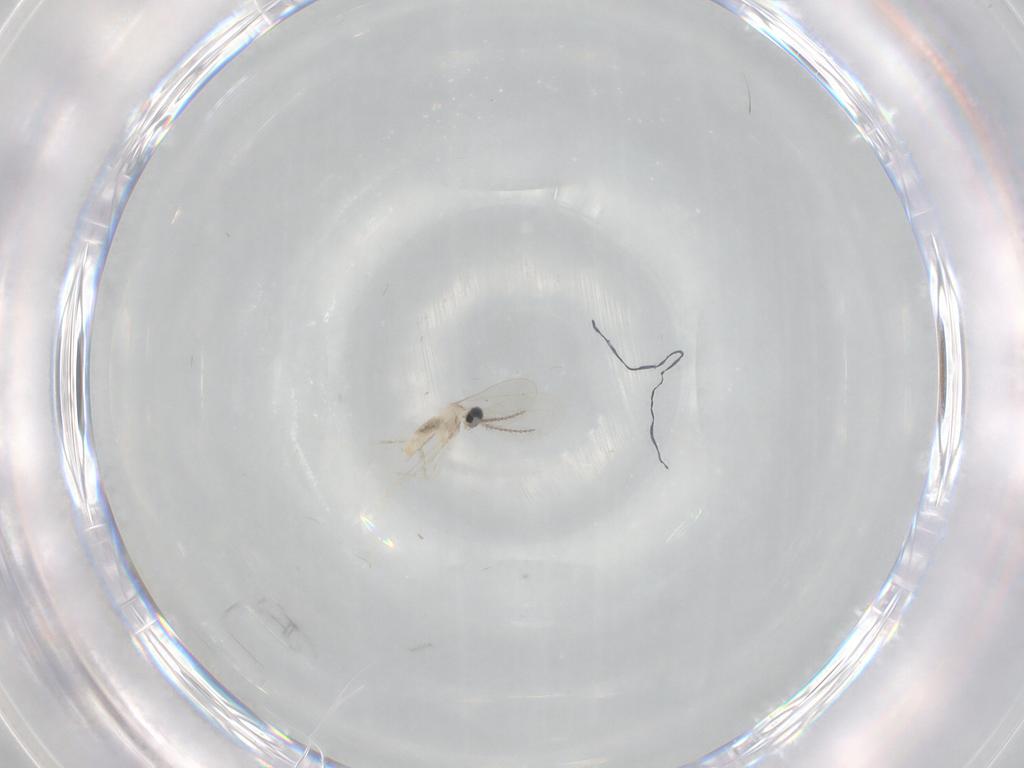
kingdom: Animalia
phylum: Arthropoda
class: Insecta
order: Diptera
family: Cecidomyiidae
